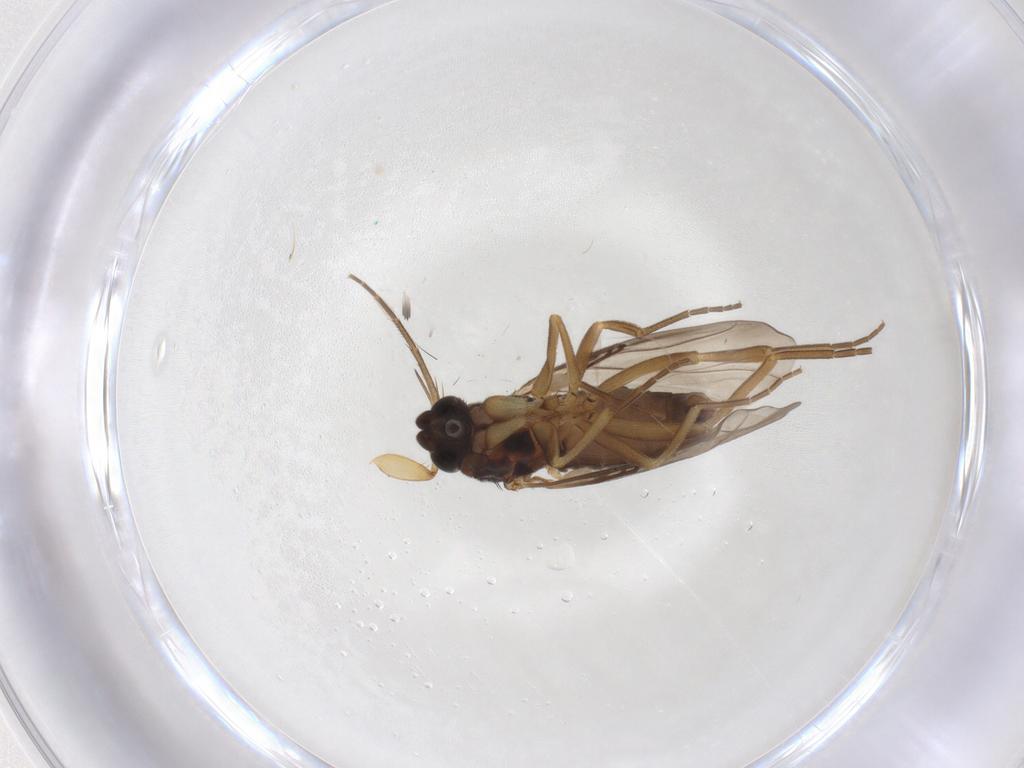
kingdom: Animalia
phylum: Arthropoda
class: Insecta
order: Diptera
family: Phoridae
